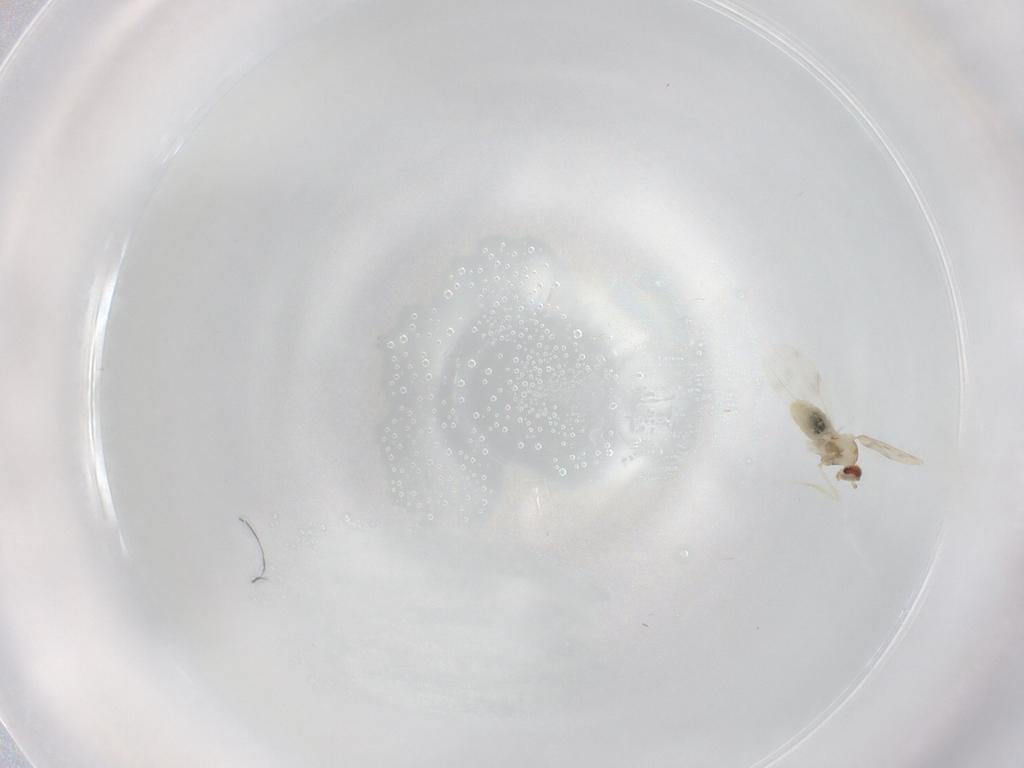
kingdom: Animalia
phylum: Arthropoda
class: Insecta
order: Diptera
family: Cecidomyiidae
